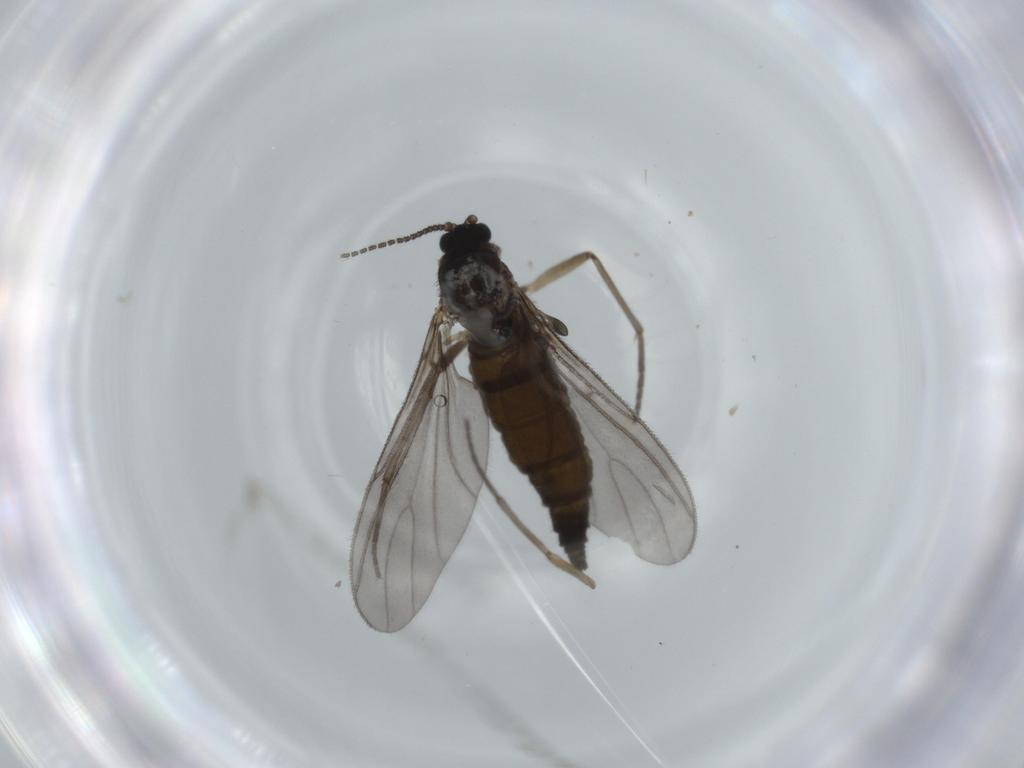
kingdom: Animalia
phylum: Arthropoda
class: Insecta
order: Diptera
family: Sciaridae
